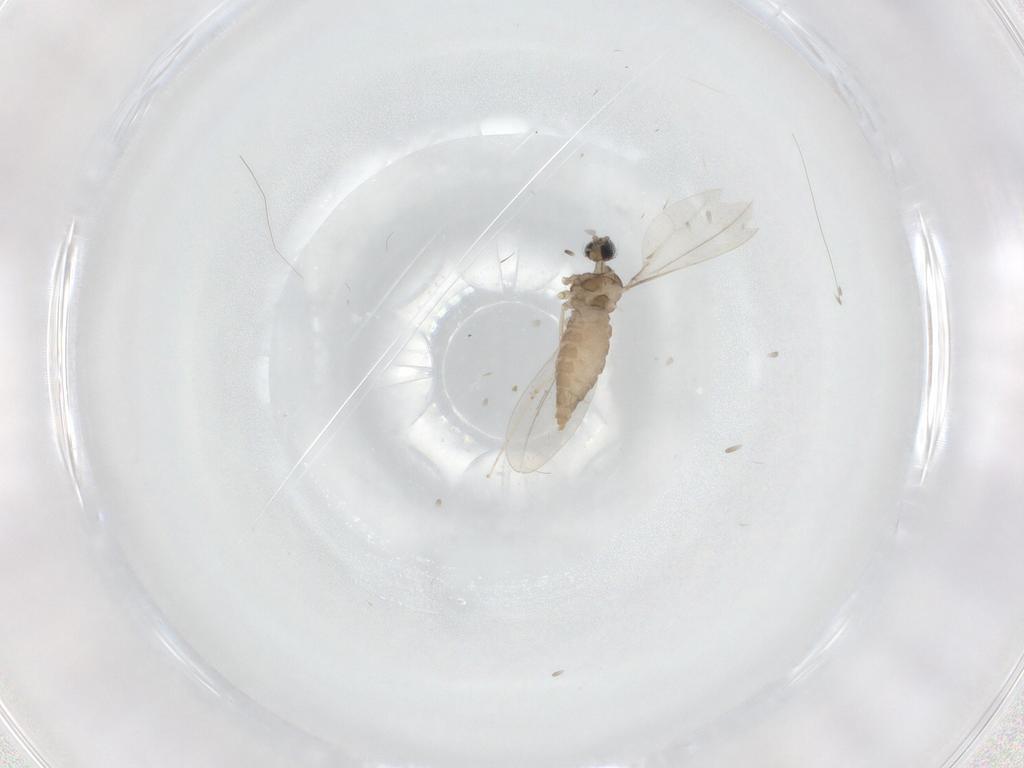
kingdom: Animalia
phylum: Arthropoda
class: Insecta
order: Diptera
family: Cecidomyiidae
